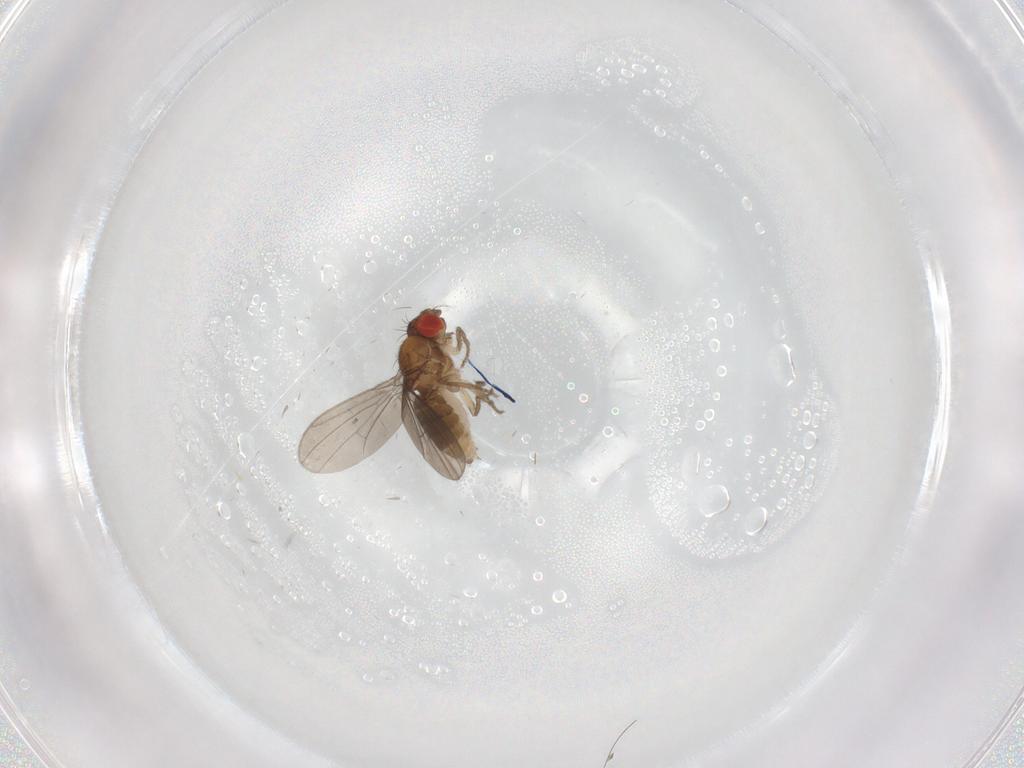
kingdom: Animalia
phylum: Arthropoda
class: Insecta
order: Diptera
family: Drosophilidae
